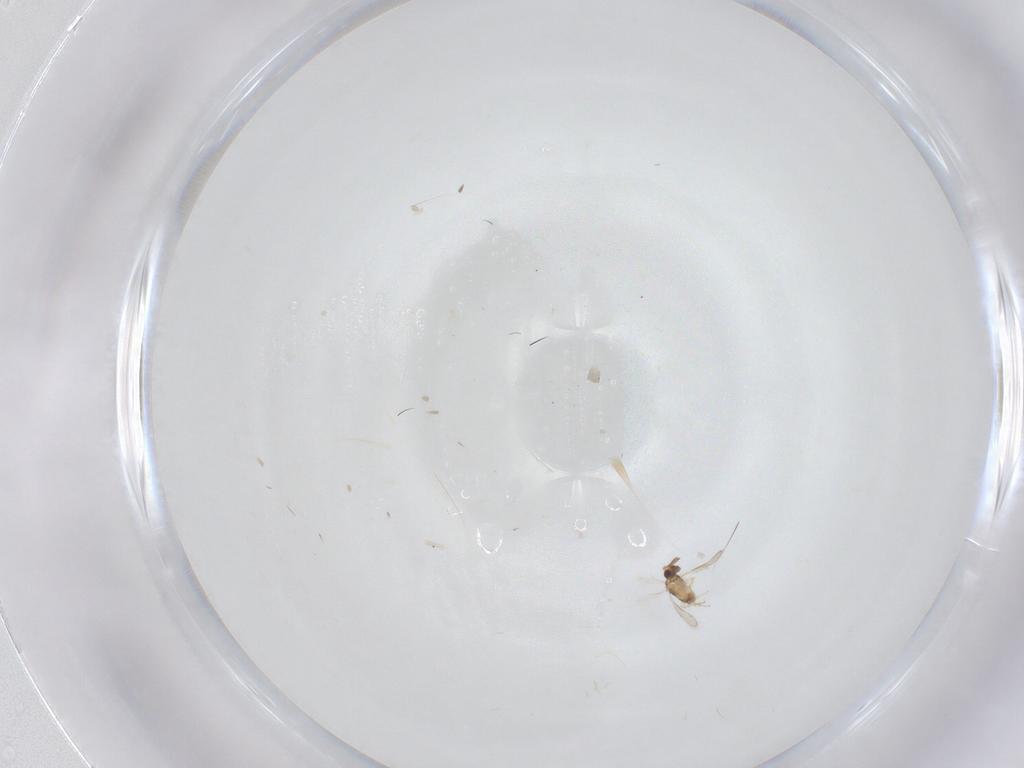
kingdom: Animalia
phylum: Arthropoda
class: Insecta
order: Hymenoptera
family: Aphelinidae
